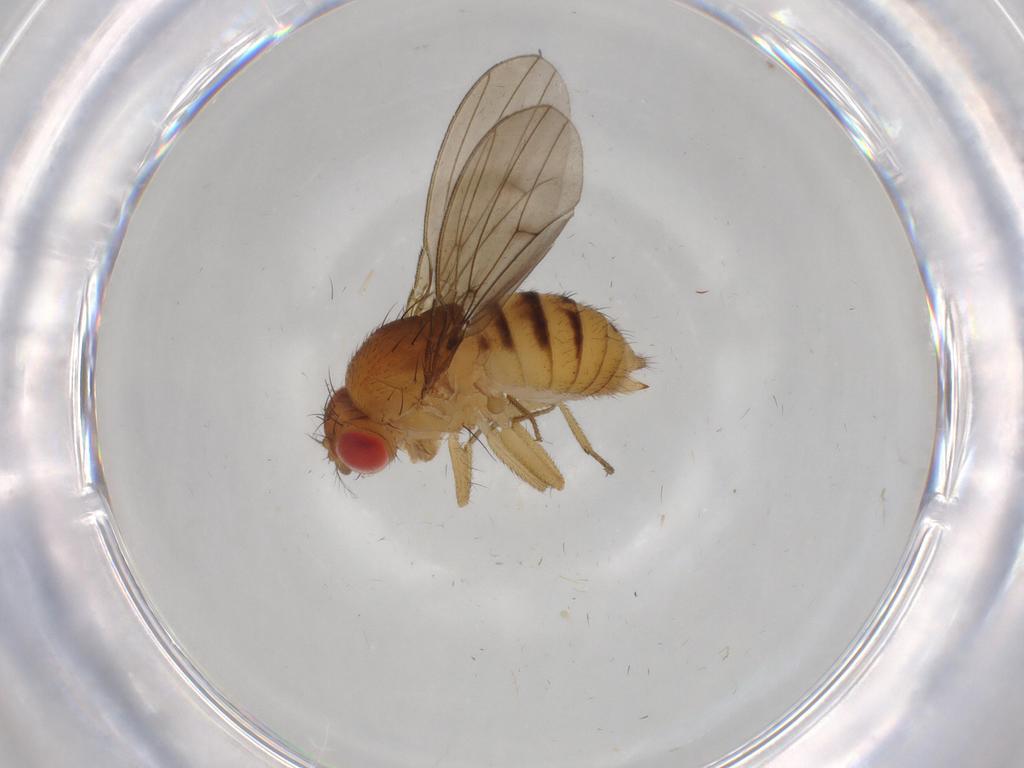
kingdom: Animalia
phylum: Arthropoda
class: Insecta
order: Diptera
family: Drosophilidae
